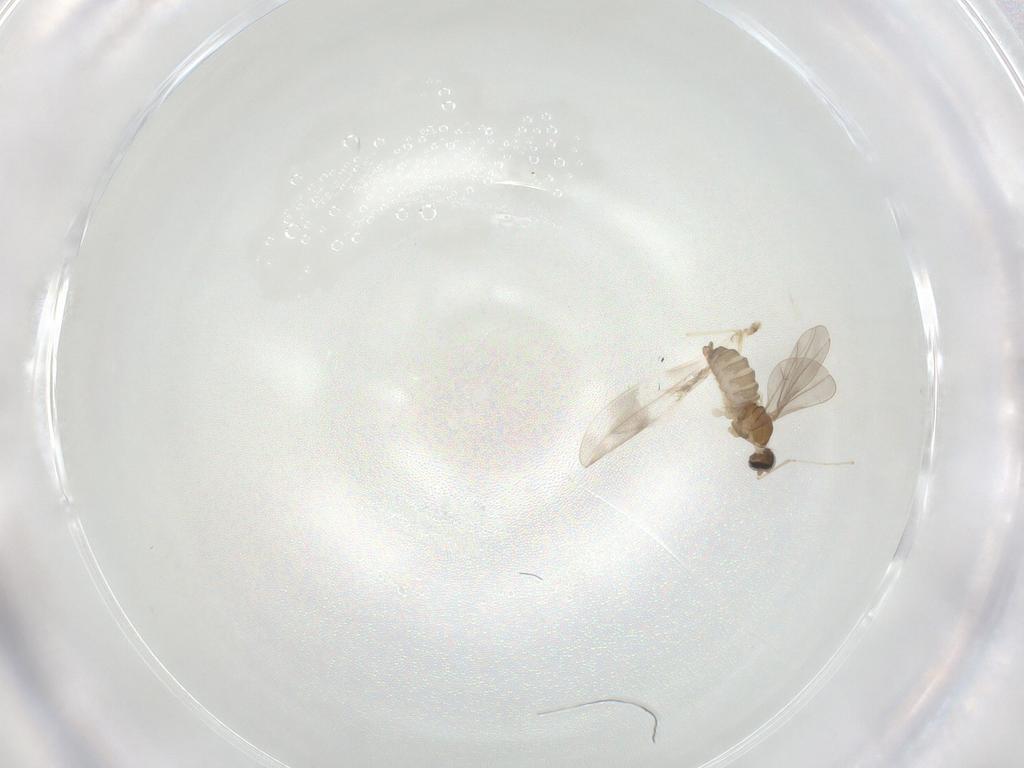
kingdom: Animalia
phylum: Arthropoda
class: Insecta
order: Diptera
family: Cecidomyiidae
